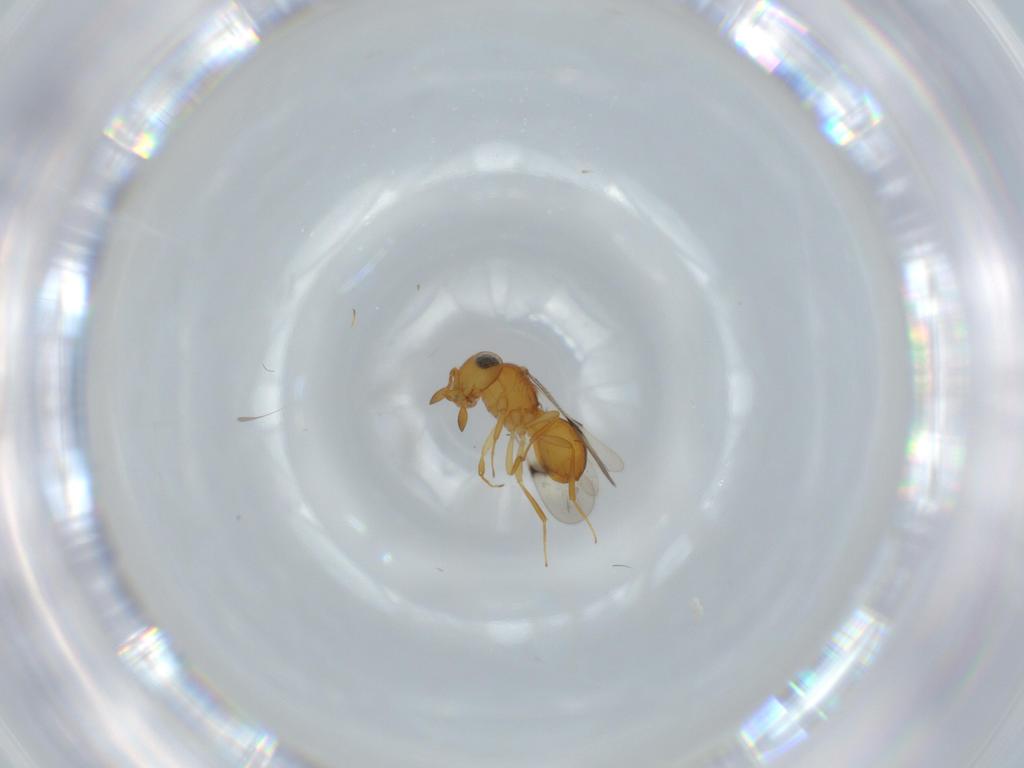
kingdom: Animalia
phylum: Arthropoda
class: Insecta
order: Hymenoptera
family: Scelionidae
